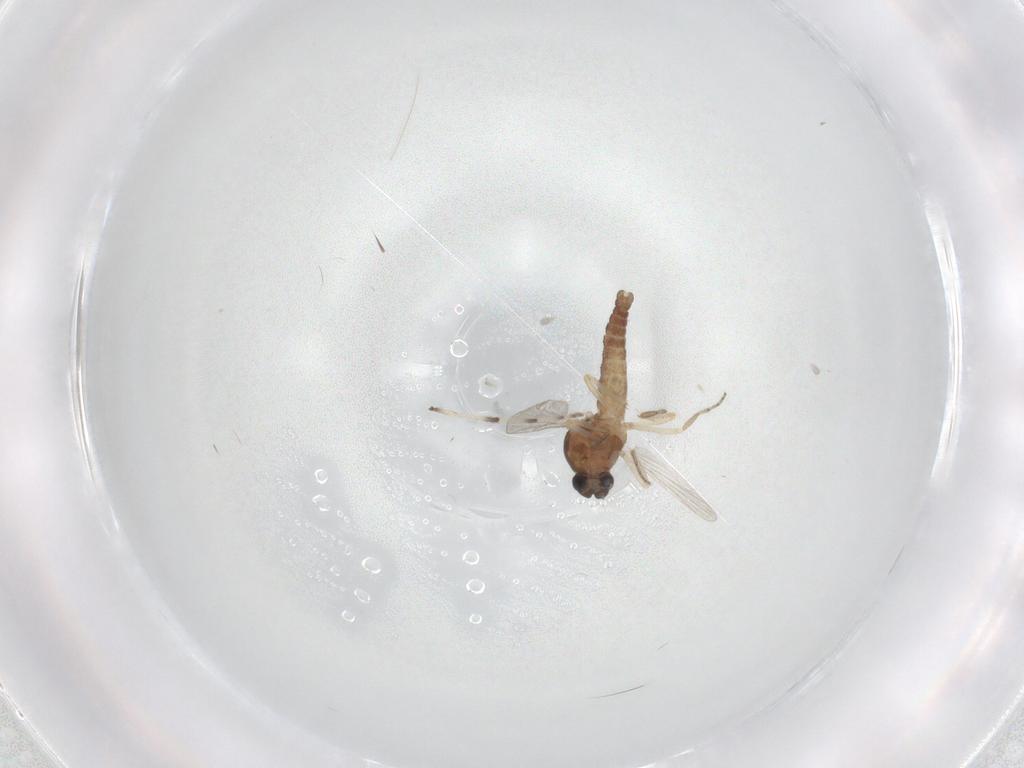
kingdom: Animalia
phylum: Arthropoda
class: Insecta
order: Diptera
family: Ceratopogonidae
